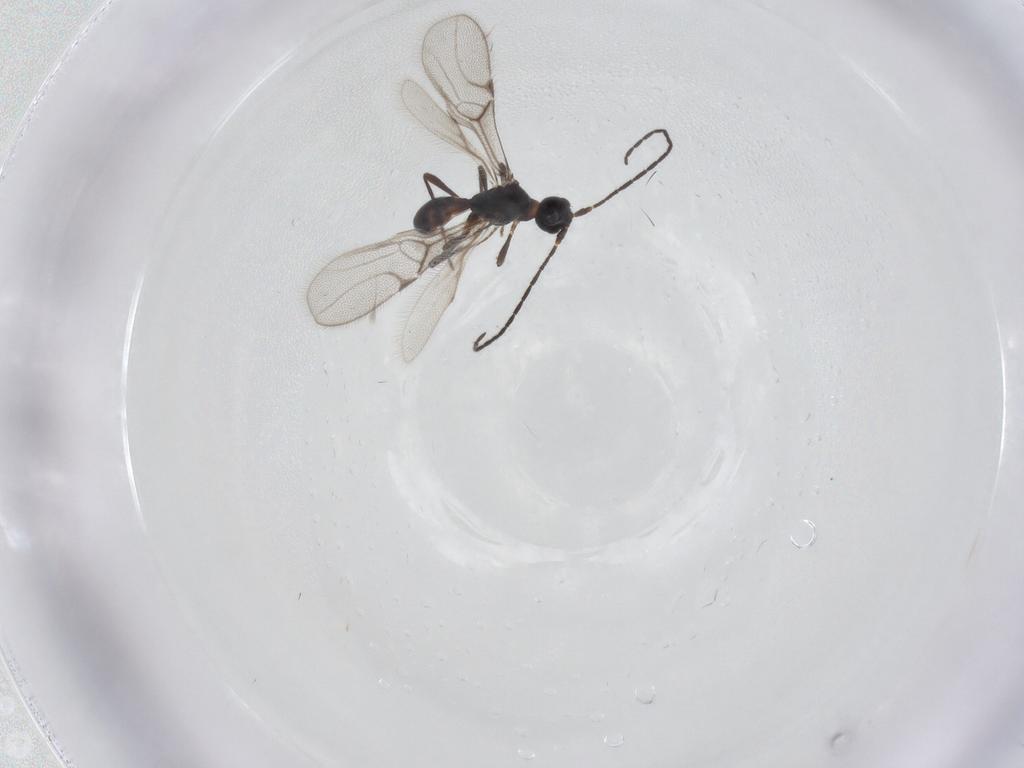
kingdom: Animalia
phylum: Arthropoda
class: Insecta
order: Hymenoptera
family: Braconidae
